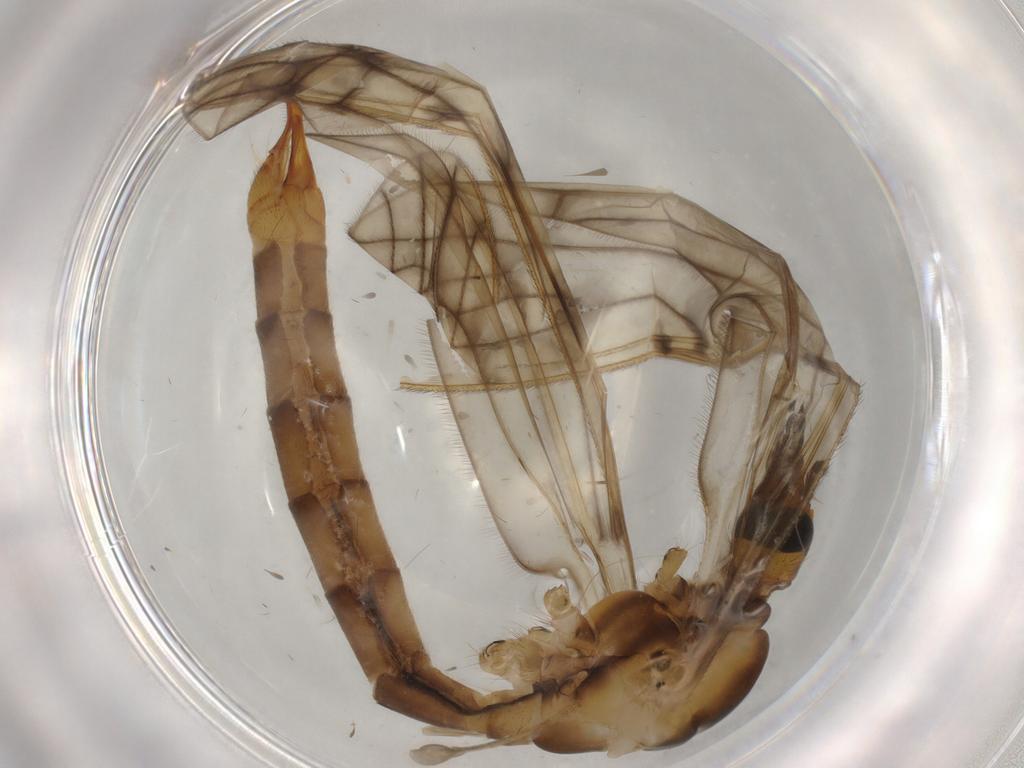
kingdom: Animalia
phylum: Arthropoda
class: Insecta
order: Diptera
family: Limoniidae
